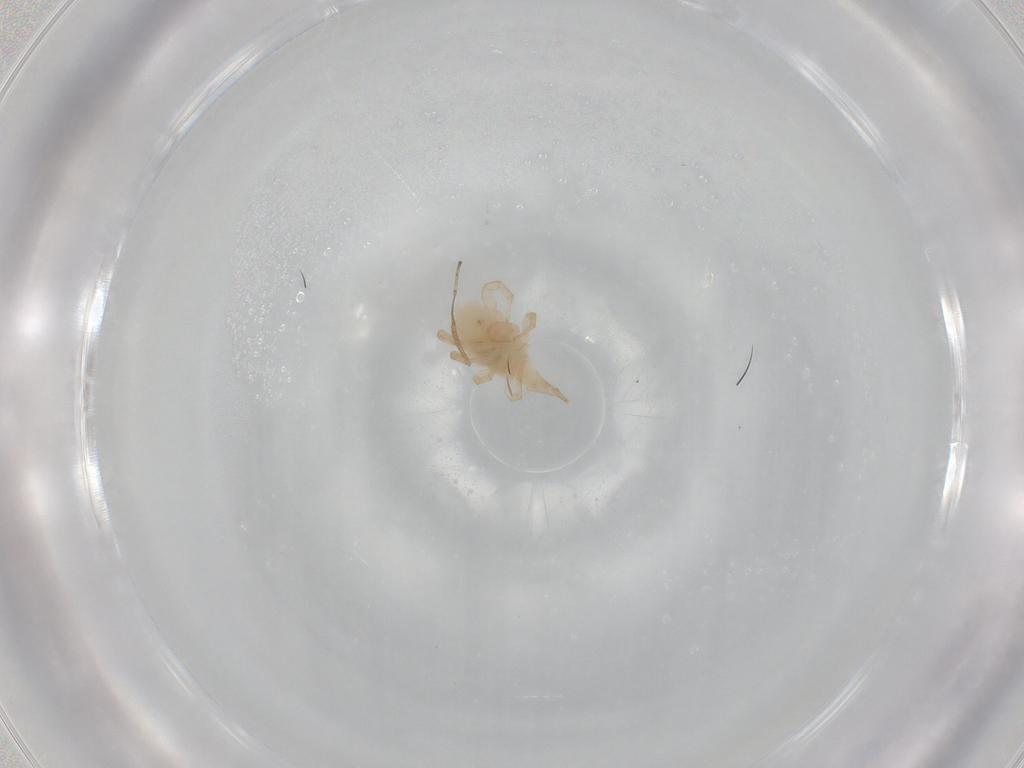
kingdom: Animalia
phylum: Arthropoda
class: Arachnida
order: Trombidiformes
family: Bdellidae
